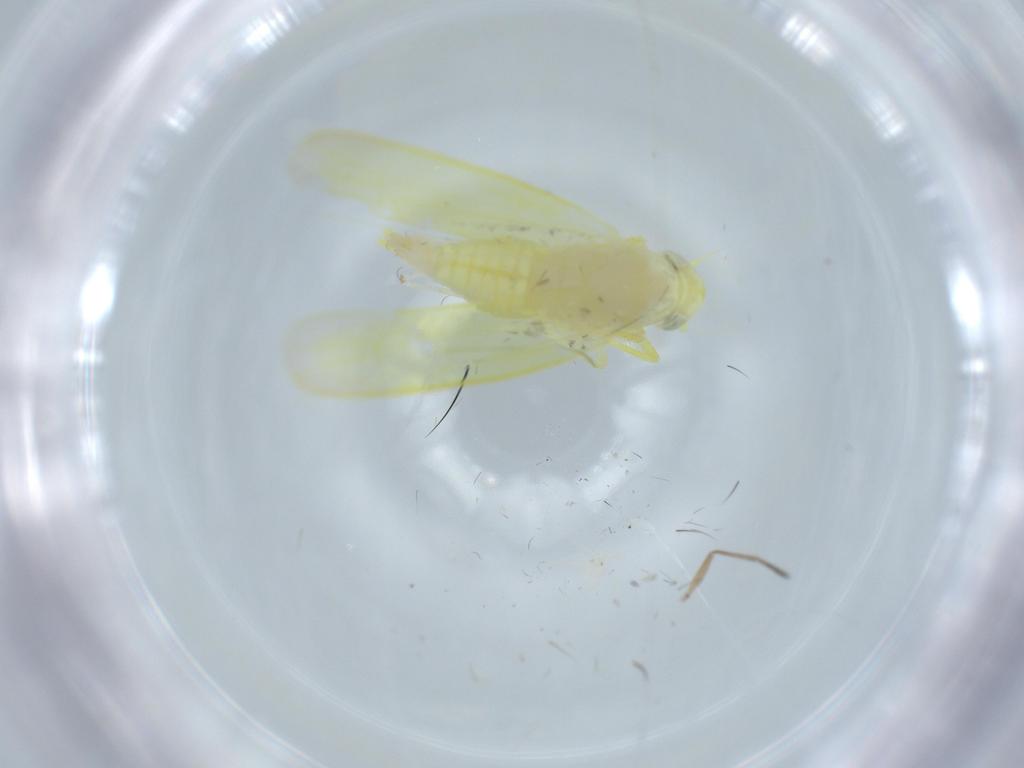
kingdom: Animalia
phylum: Arthropoda
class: Insecta
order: Hemiptera
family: Cicadellidae
